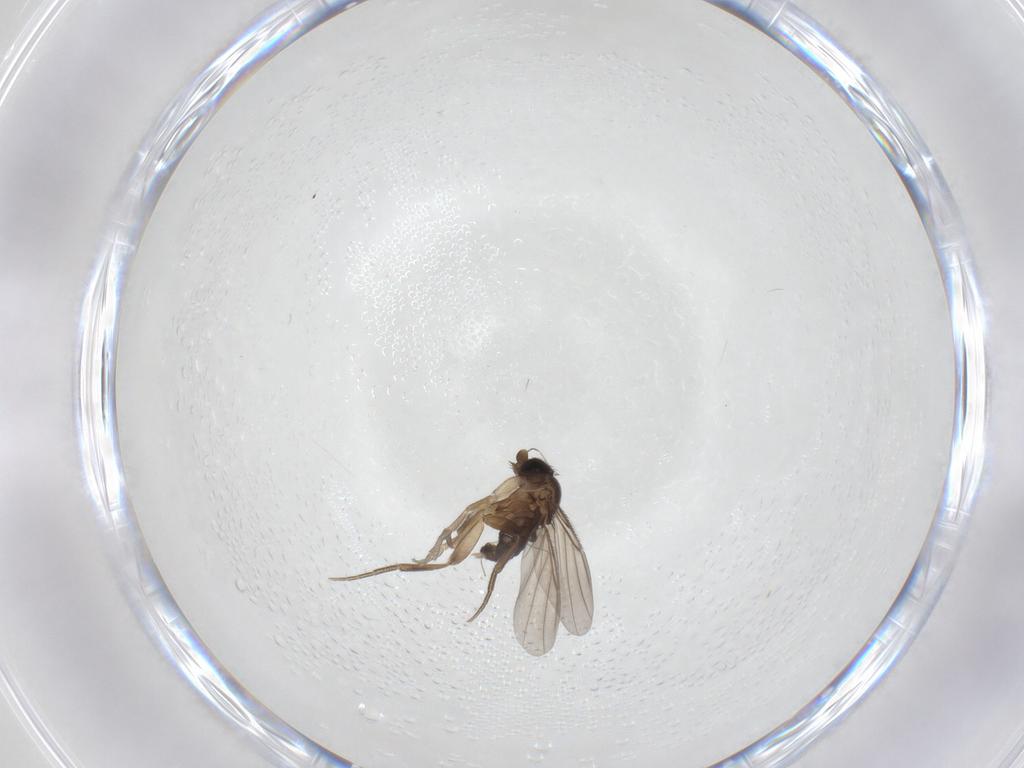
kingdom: Animalia
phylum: Arthropoda
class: Insecta
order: Diptera
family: Phoridae
